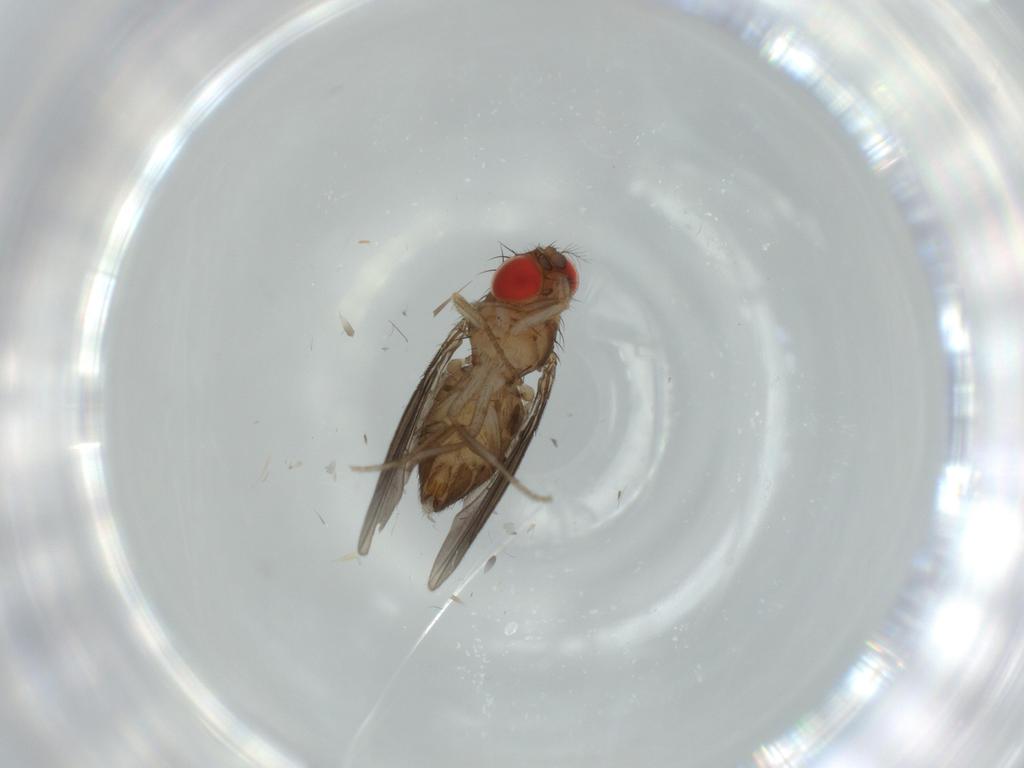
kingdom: Animalia
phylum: Arthropoda
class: Insecta
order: Diptera
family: Drosophilidae
